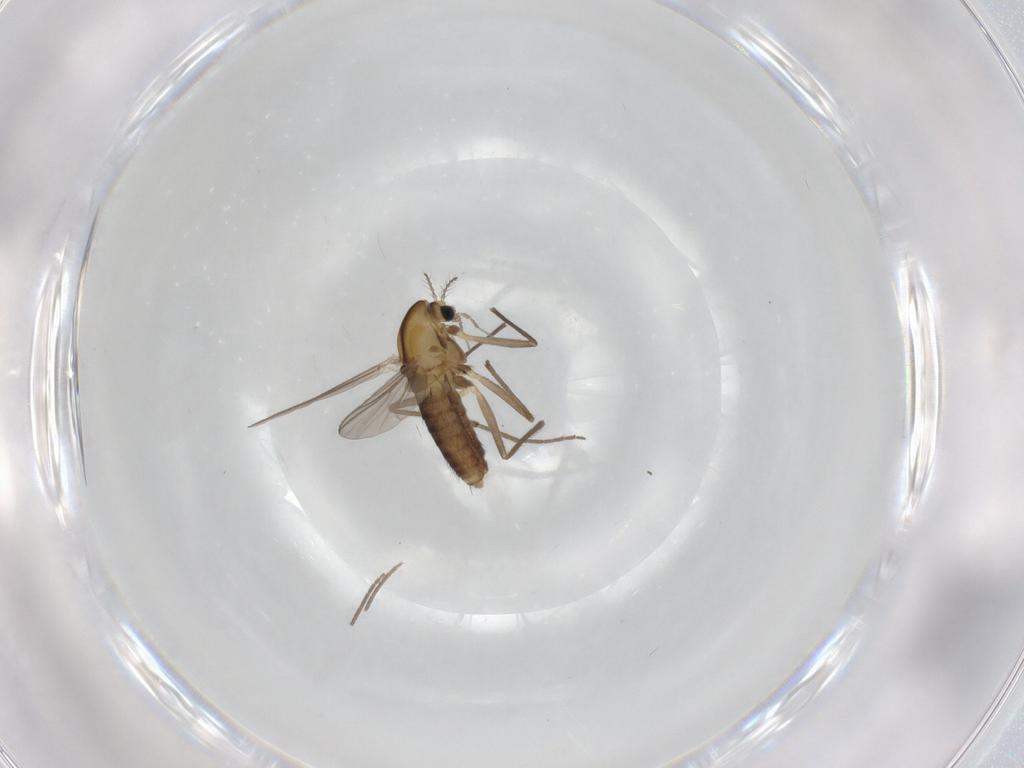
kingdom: Animalia
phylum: Arthropoda
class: Insecta
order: Diptera
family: Chironomidae
